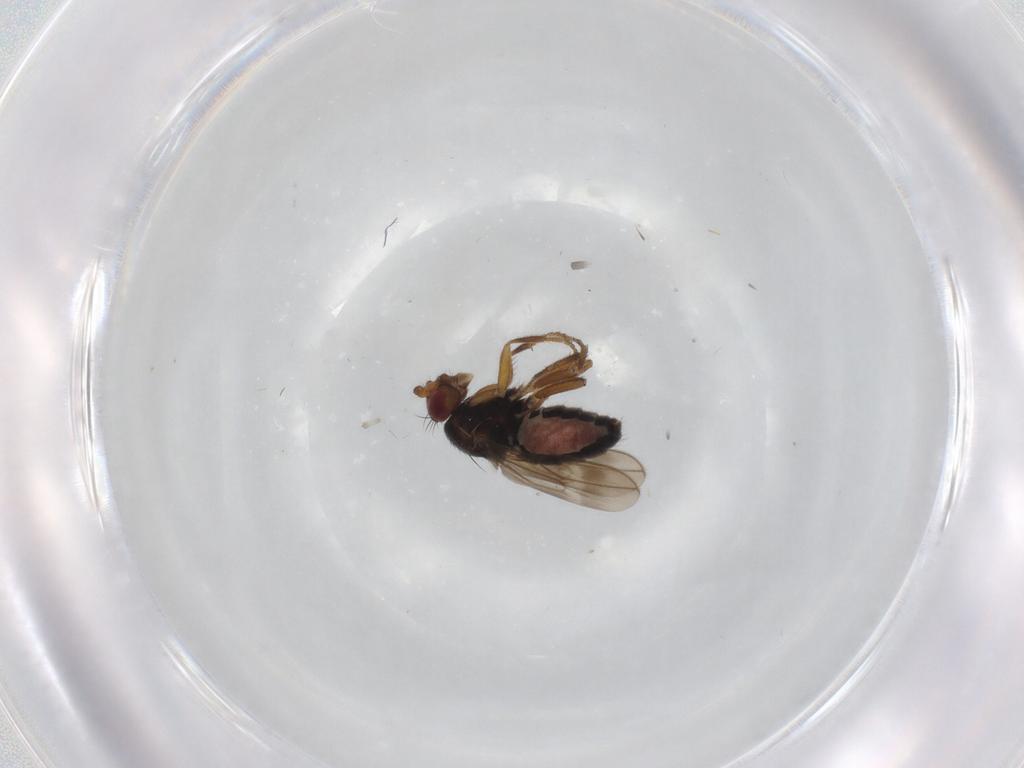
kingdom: Animalia
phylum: Arthropoda
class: Insecta
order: Diptera
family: Sphaeroceridae
